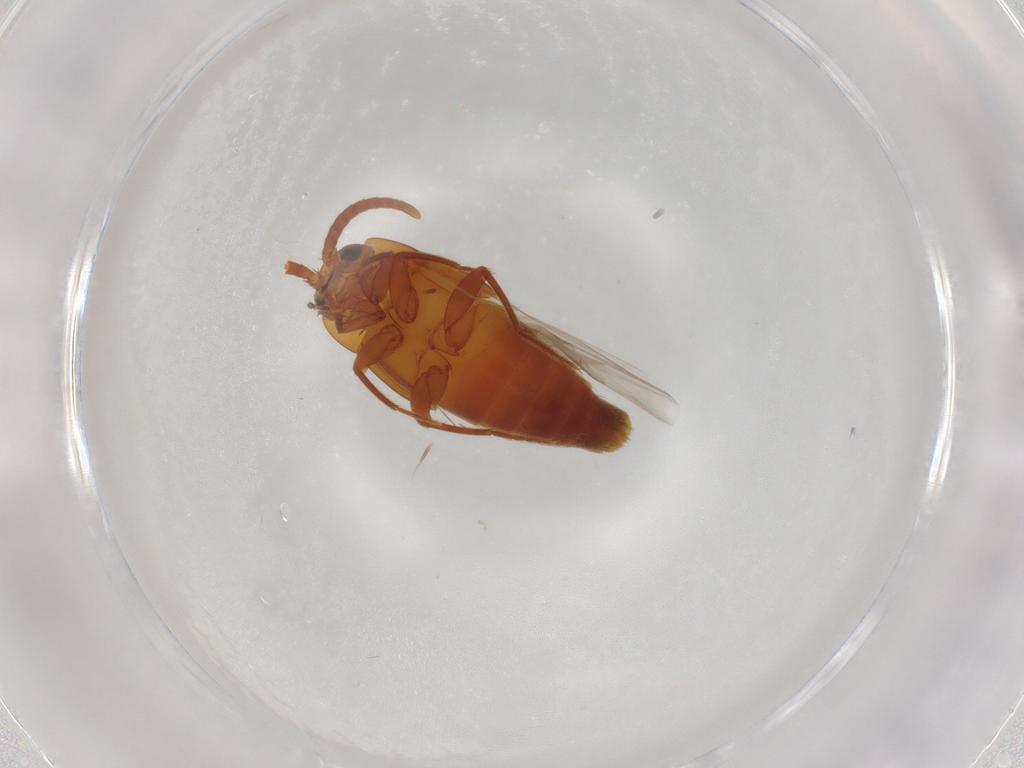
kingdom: Animalia
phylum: Arthropoda
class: Insecta
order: Coleoptera
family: Staphylinidae
